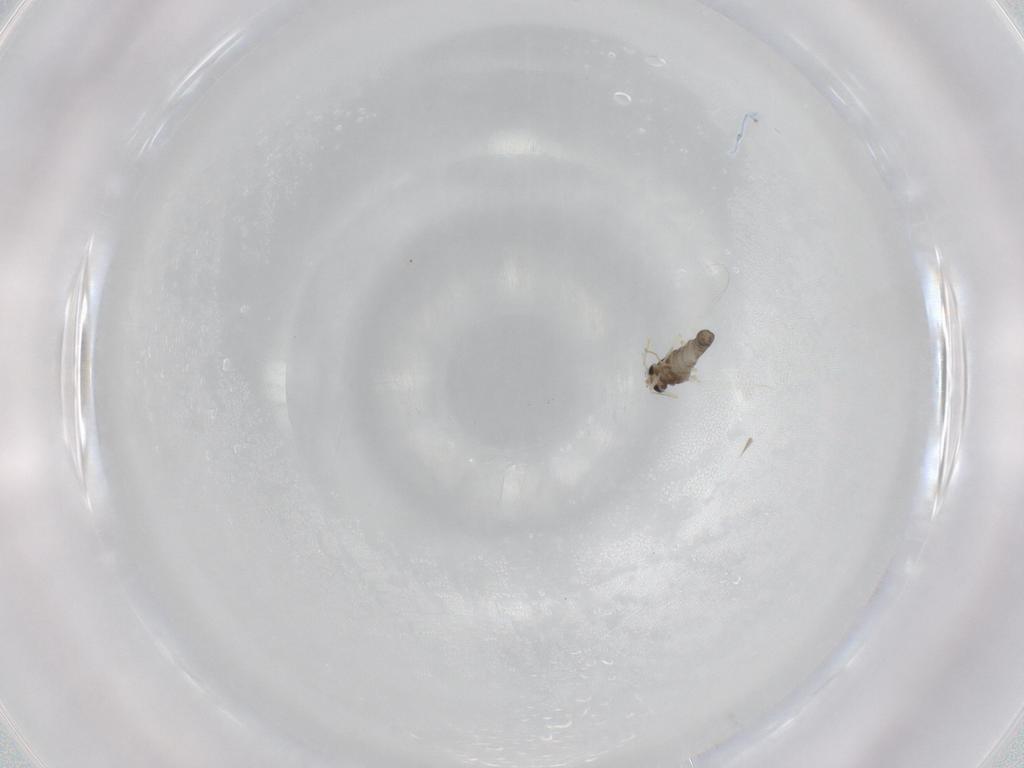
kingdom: Animalia
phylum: Arthropoda
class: Insecta
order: Diptera
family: Chironomidae
